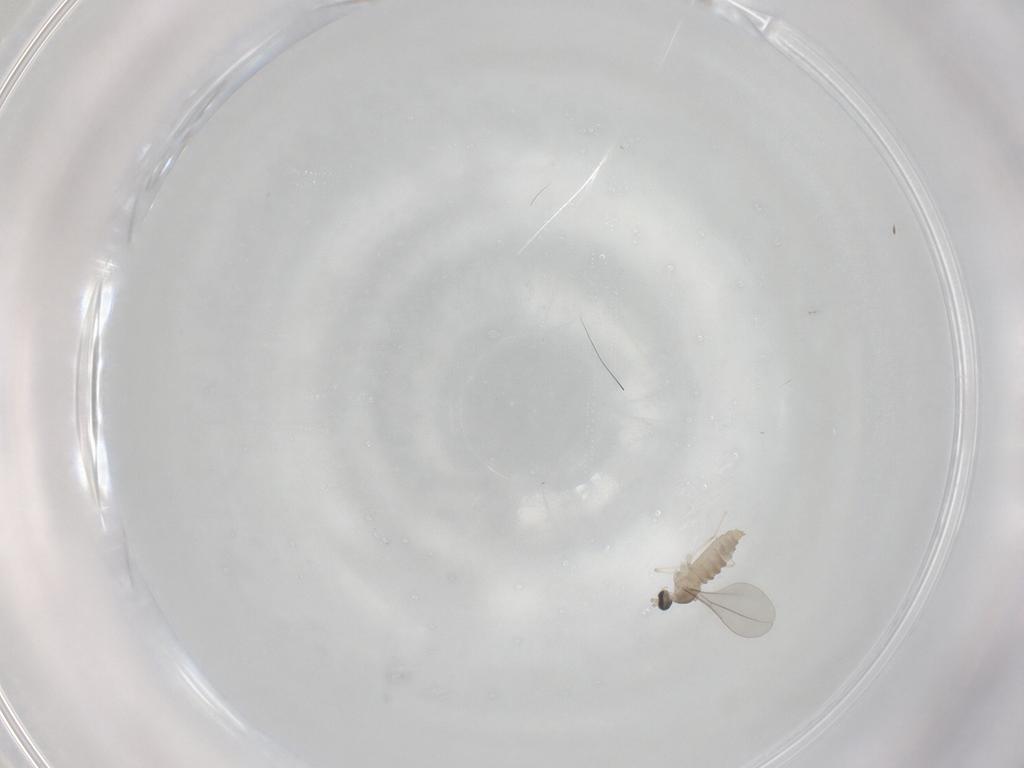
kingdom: Animalia
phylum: Arthropoda
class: Insecta
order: Diptera
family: Cecidomyiidae
